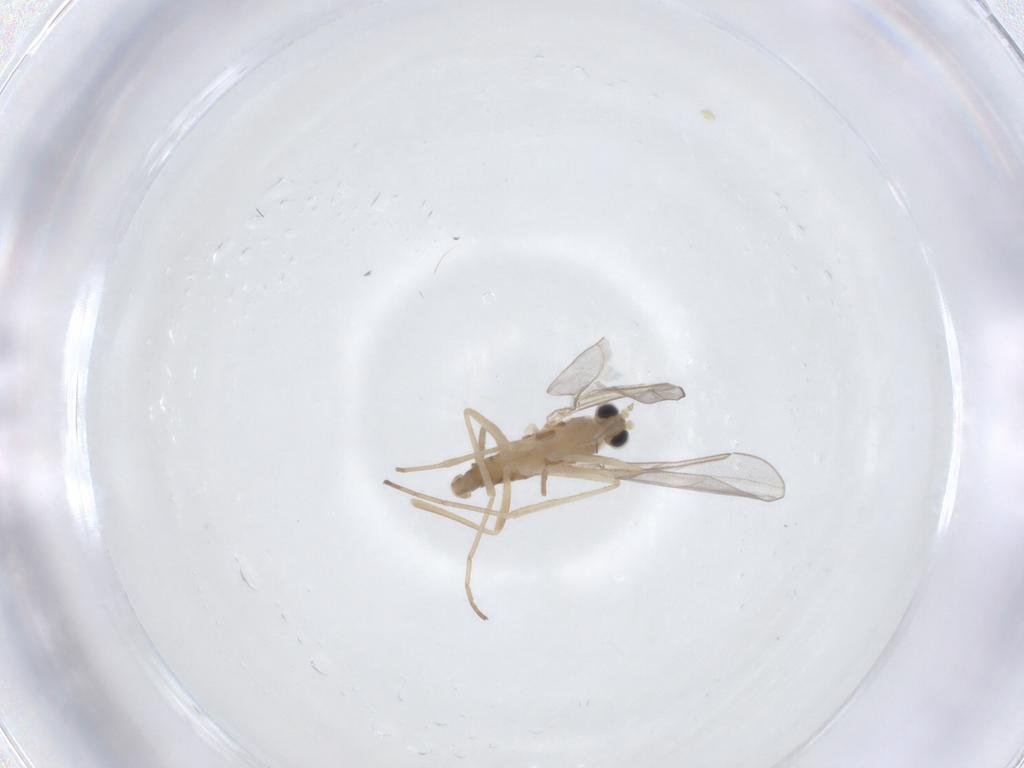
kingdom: Animalia
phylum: Arthropoda
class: Insecta
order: Diptera
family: Cecidomyiidae
